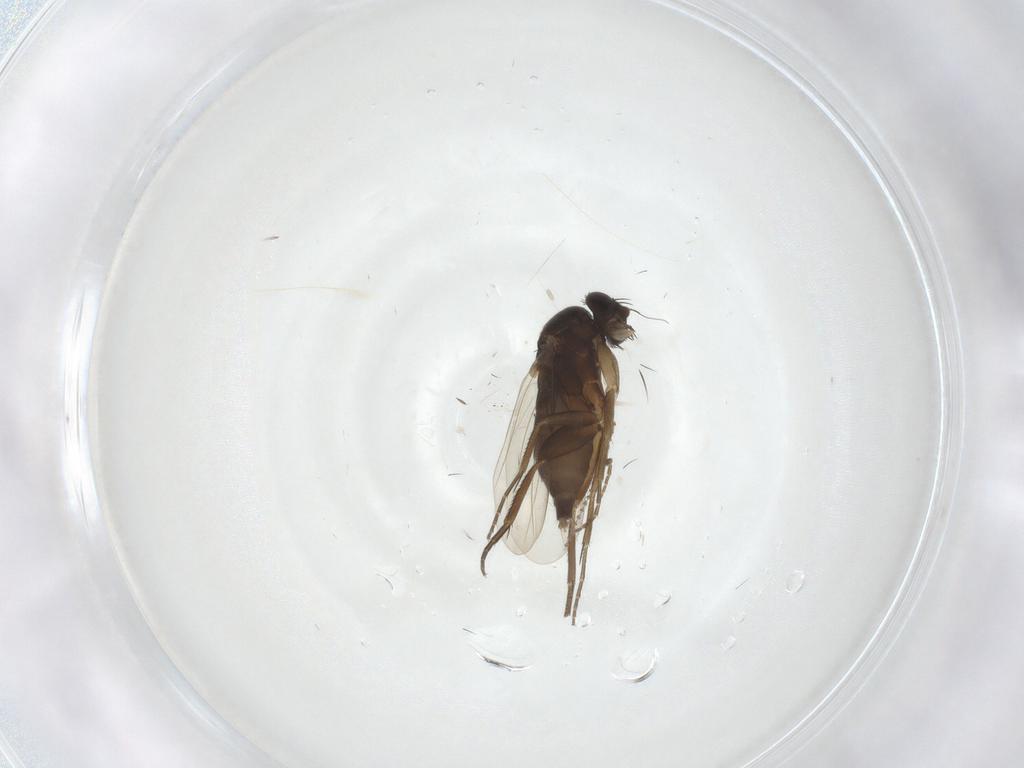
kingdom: Animalia
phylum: Arthropoda
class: Insecta
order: Diptera
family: Phoridae
